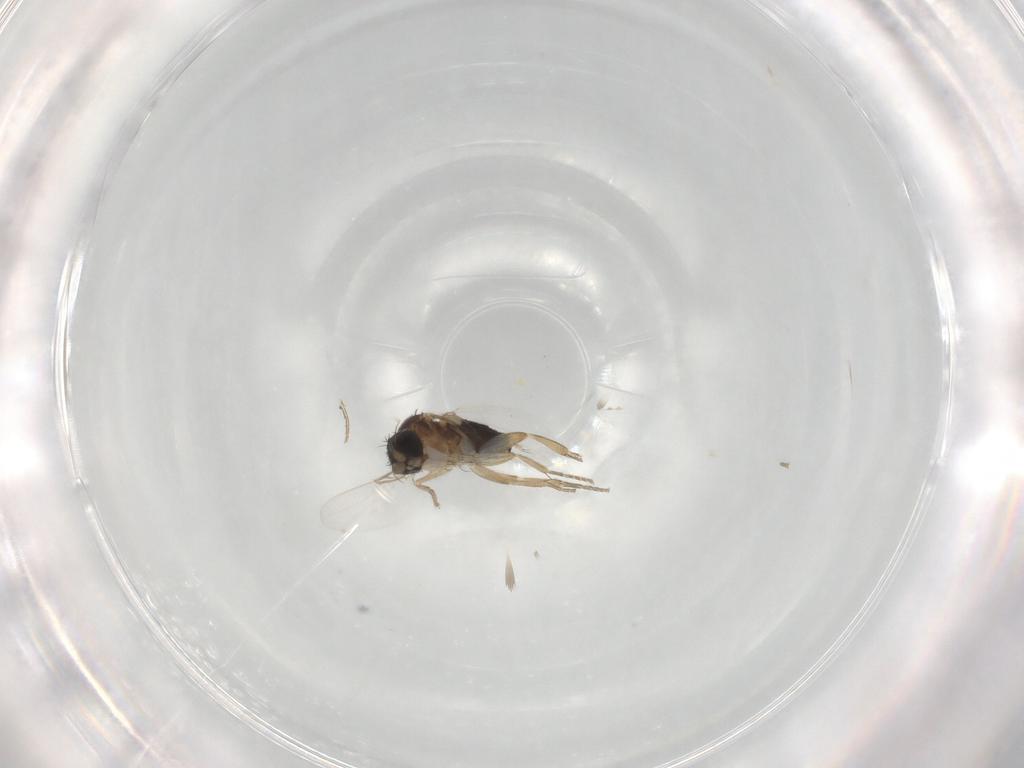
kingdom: Animalia
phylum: Arthropoda
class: Insecta
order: Diptera
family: Phoridae
